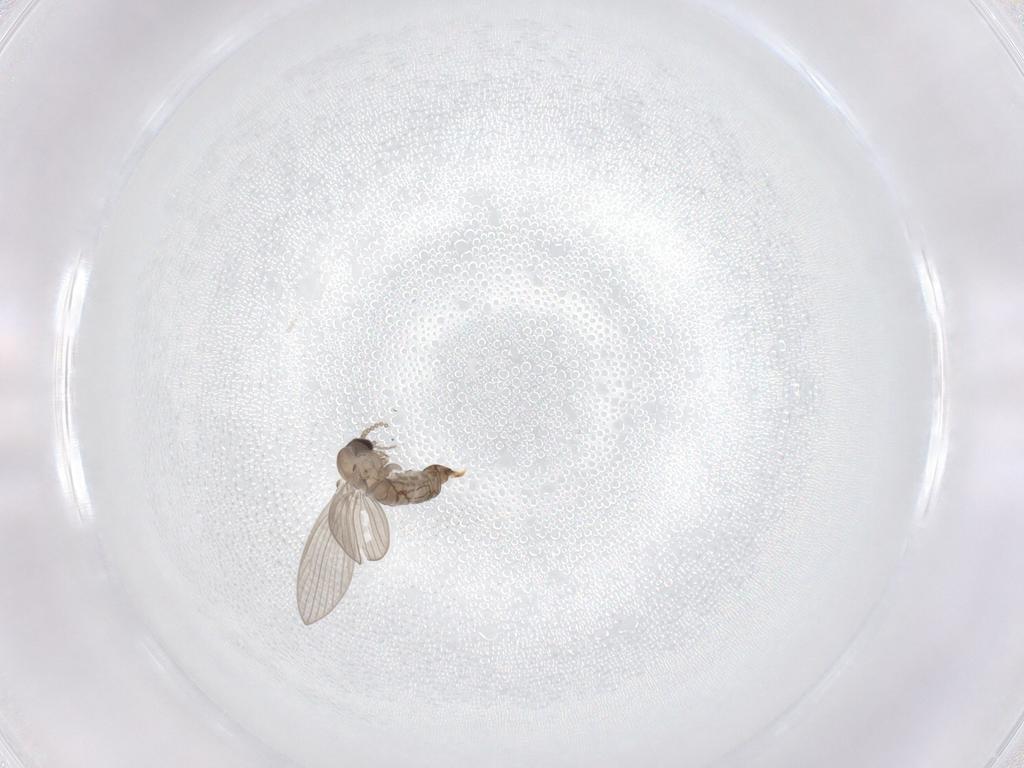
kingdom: Animalia
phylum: Arthropoda
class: Insecta
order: Diptera
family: Psychodidae
